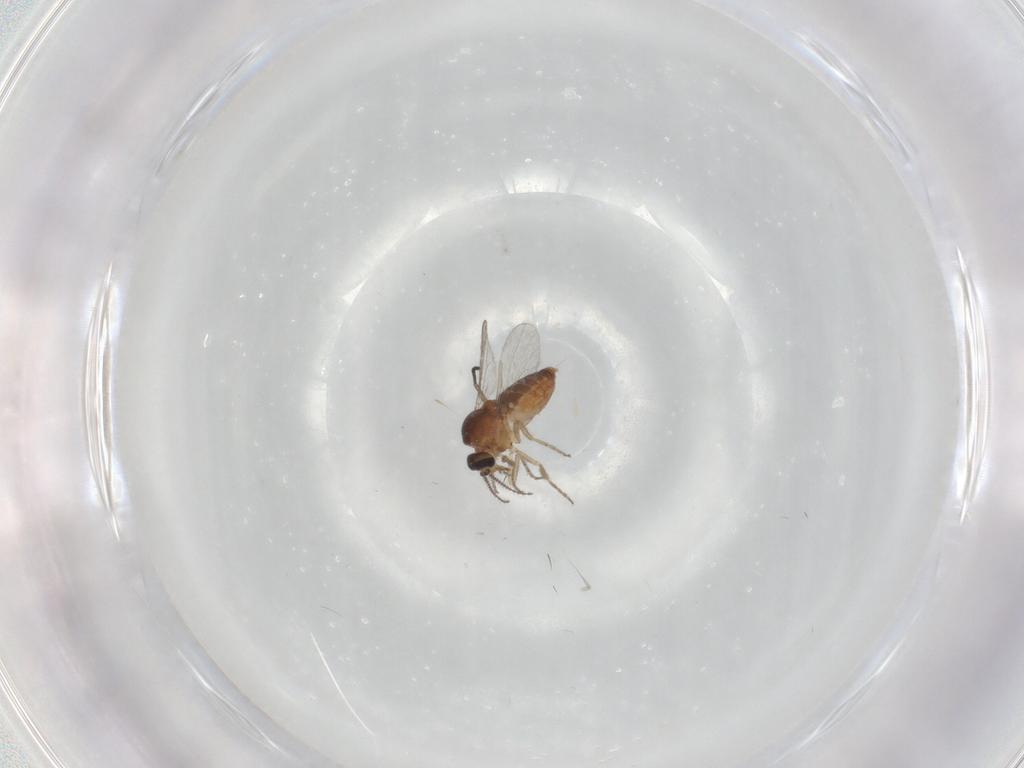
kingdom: Animalia
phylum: Arthropoda
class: Insecta
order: Diptera
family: Ceratopogonidae
